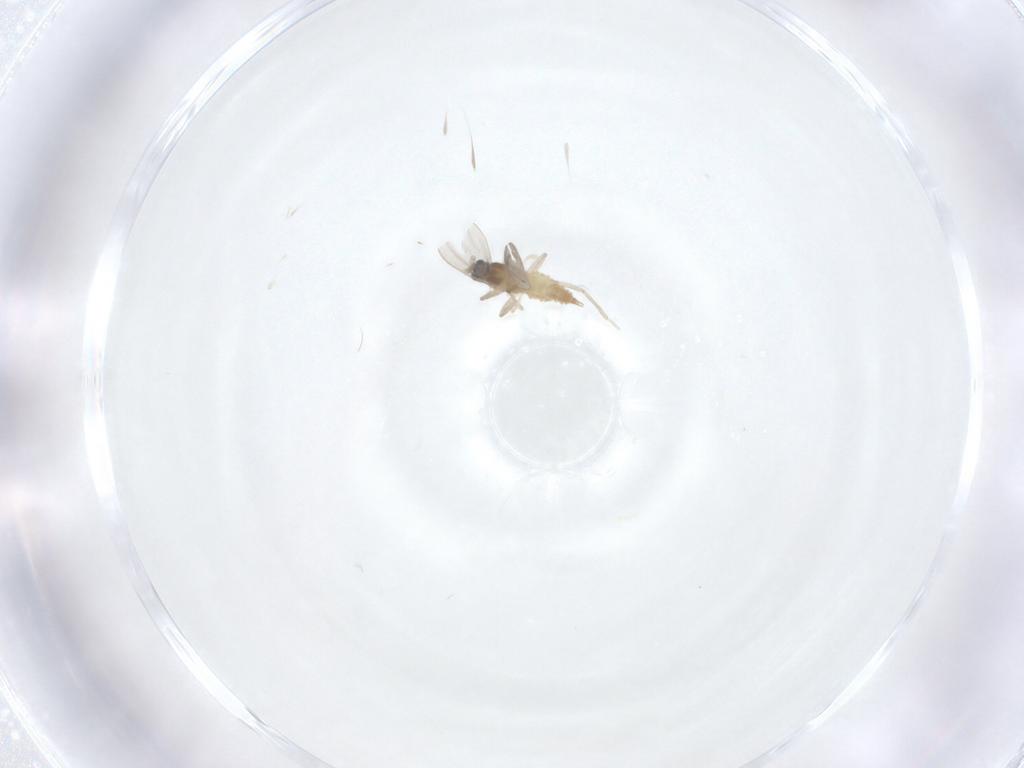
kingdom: Animalia
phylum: Arthropoda
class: Insecta
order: Diptera
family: Cecidomyiidae
